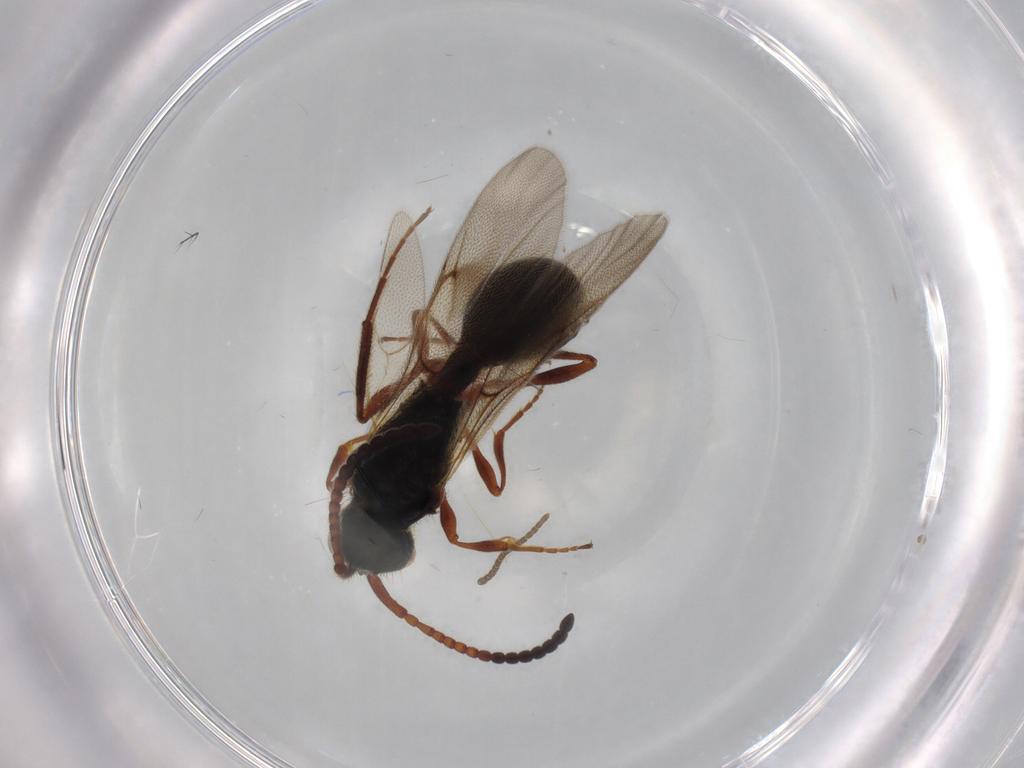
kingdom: Animalia
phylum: Arthropoda
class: Insecta
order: Hymenoptera
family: Diapriidae
